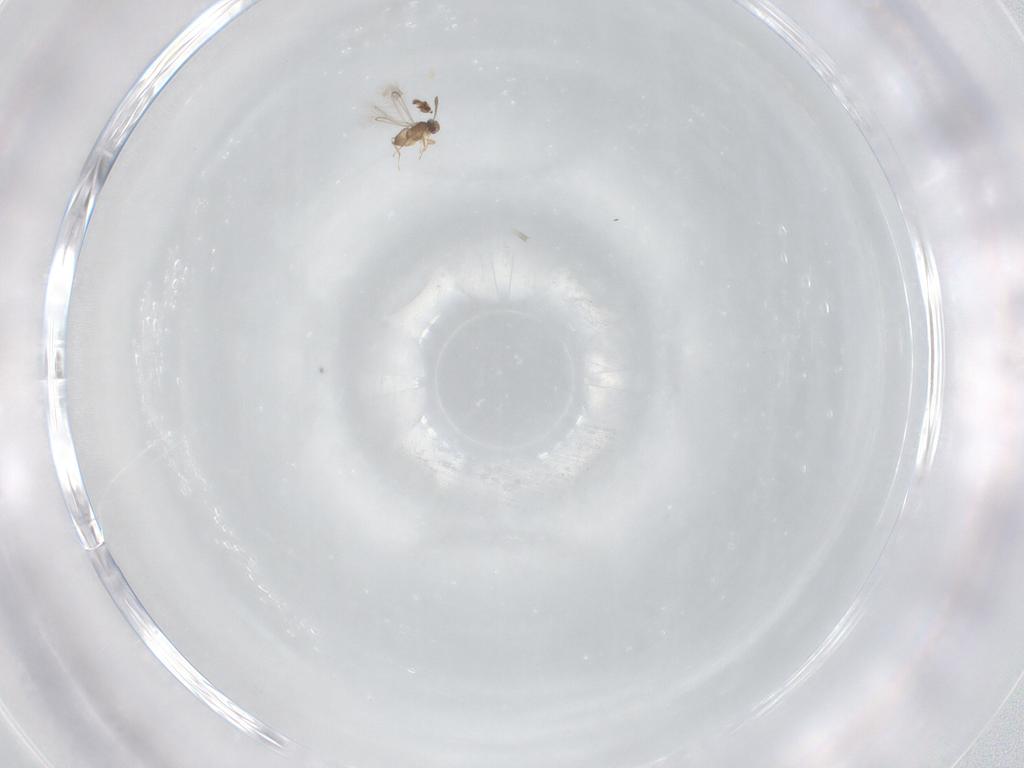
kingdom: Animalia
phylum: Arthropoda
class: Insecta
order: Hymenoptera
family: Mymaridae
